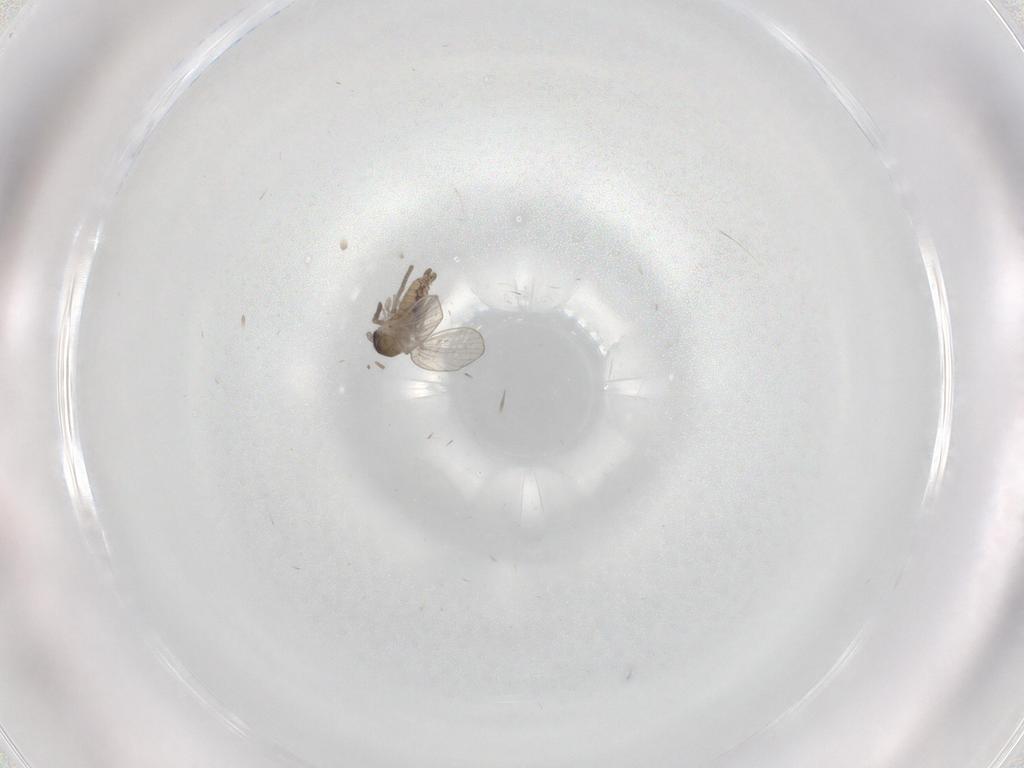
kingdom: Animalia
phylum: Arthropoda
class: Insecta
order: Diptera
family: Psychodidae
